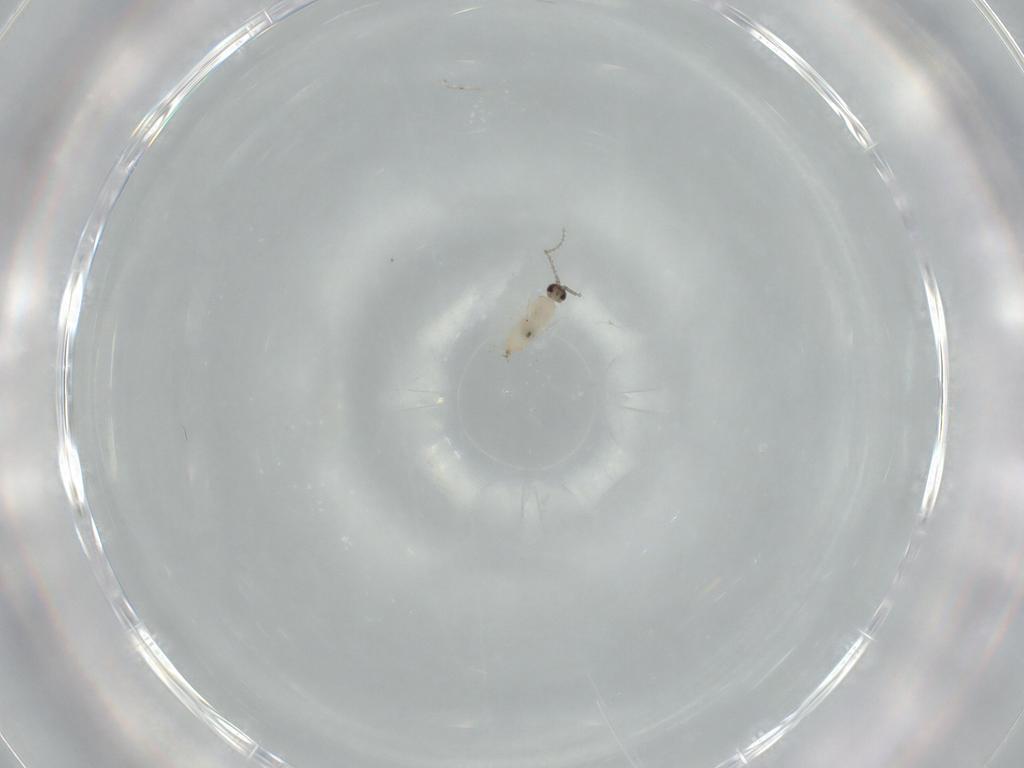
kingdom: Animalia
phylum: Arthropoda
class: Insecta
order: Diptera
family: Cecidomyiidae
